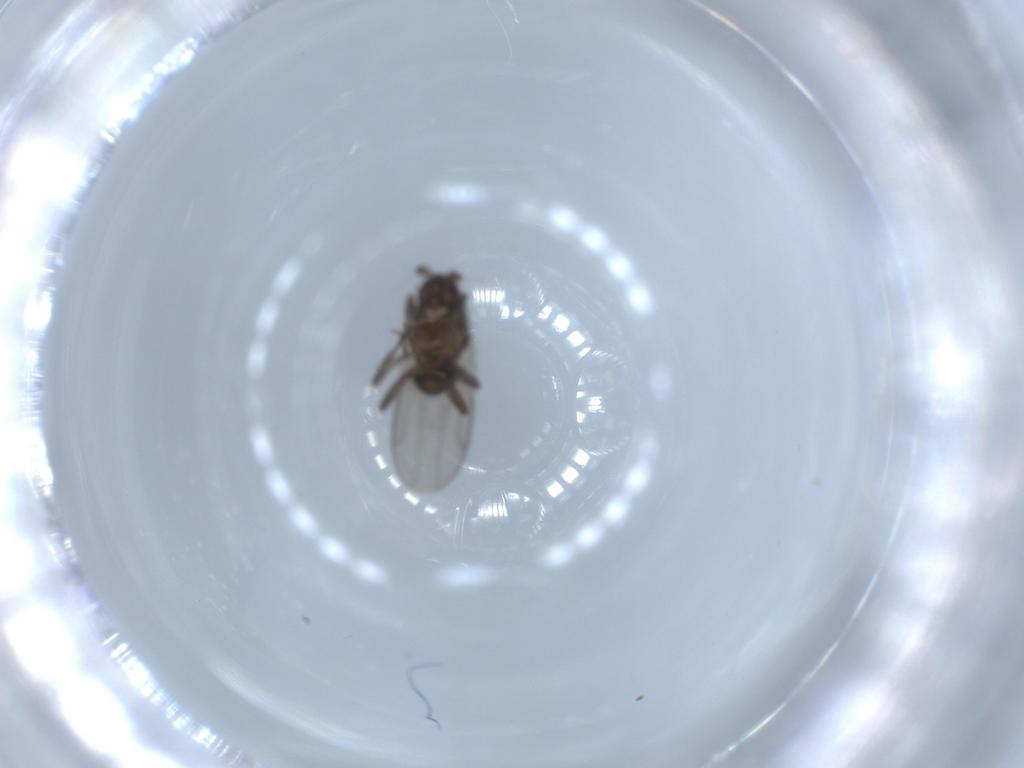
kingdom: Animalia
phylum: Arthropoda
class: Insecta
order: Diptera
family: Sphaeroceridae
